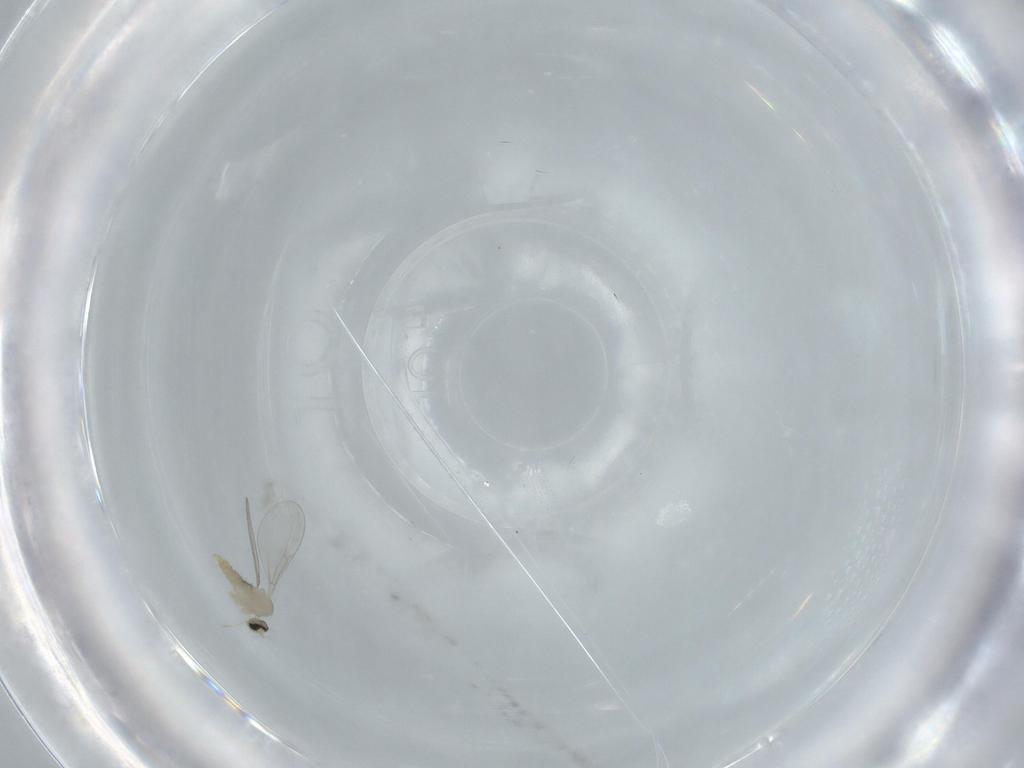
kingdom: Animalia
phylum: Arthropoda
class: Insecta
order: Diptera
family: Cecidomyiidae
